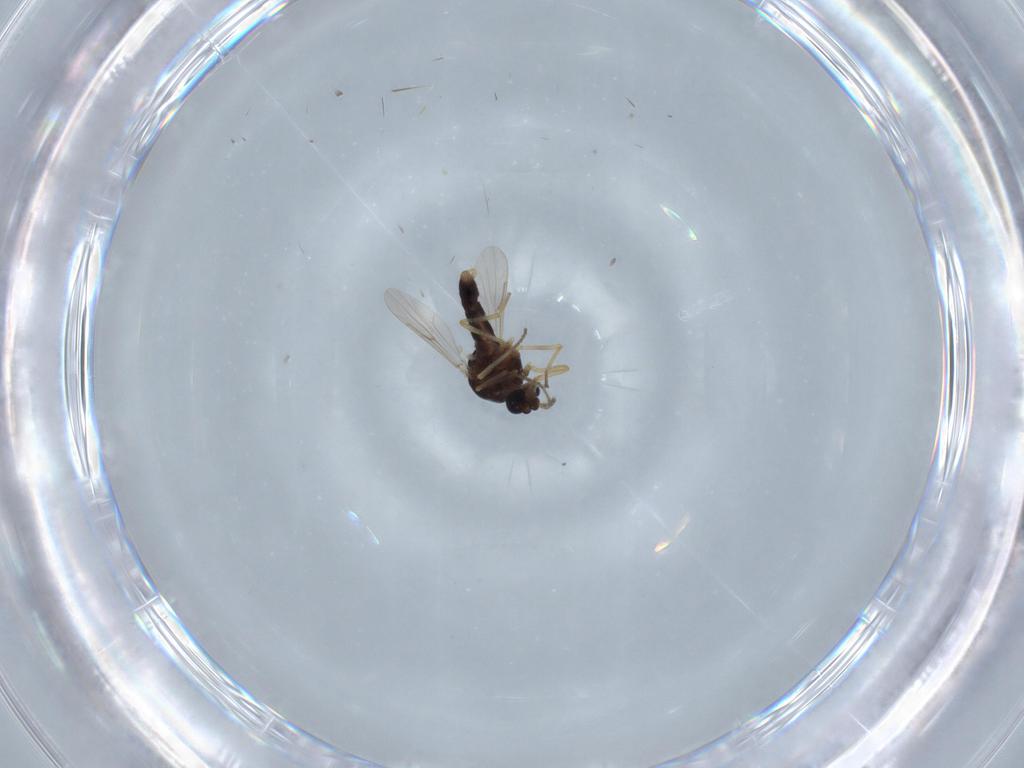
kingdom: Animalia
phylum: Arthropoda
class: Insecta
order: Diptera
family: Ceratopogonidae
